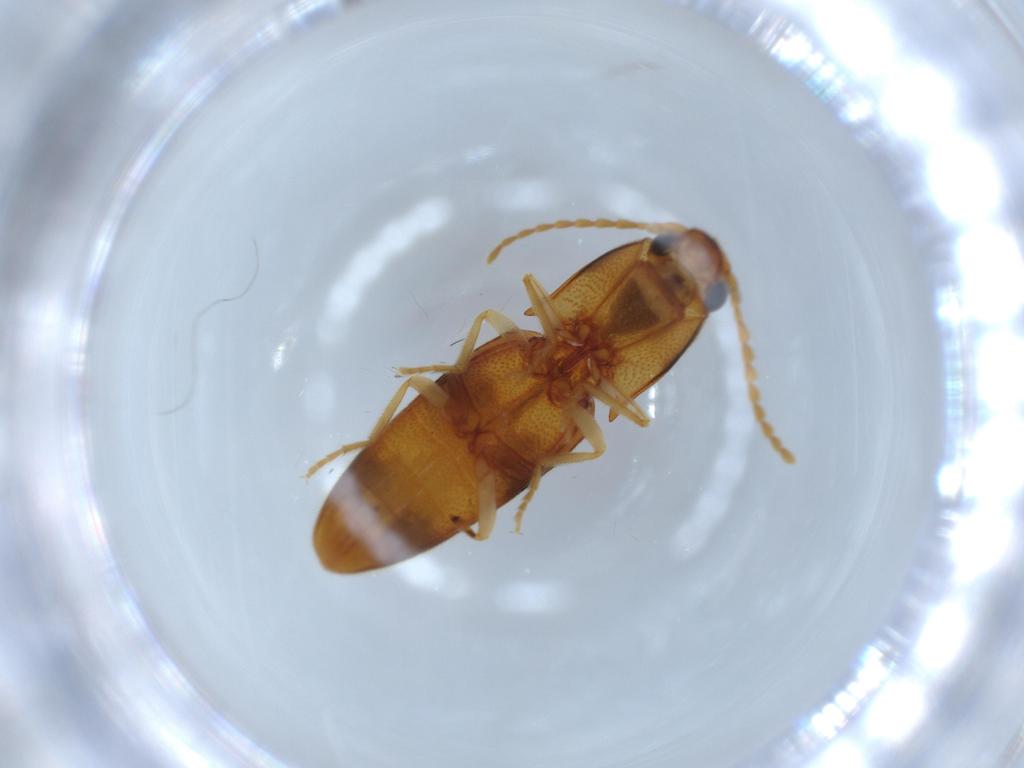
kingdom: Animalia
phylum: Arthropoda
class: Insecta
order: Coleoptera
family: Elateridae
